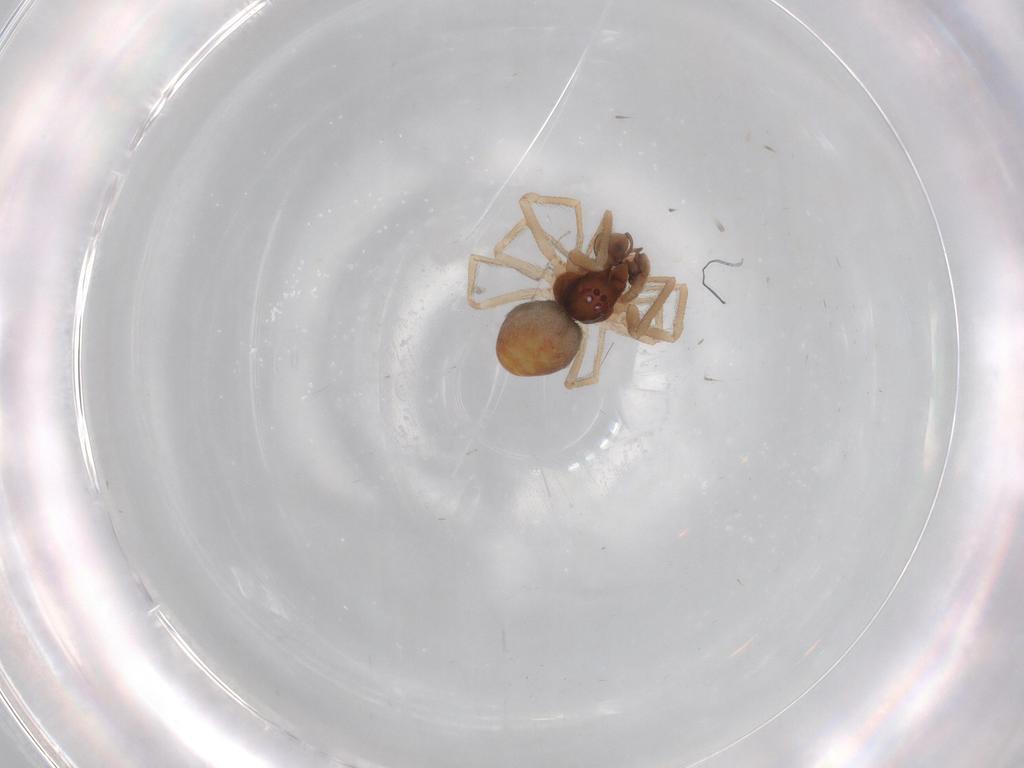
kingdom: Animalia
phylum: Arthropoda
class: Arachnida
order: Araneae
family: Dictynidae
